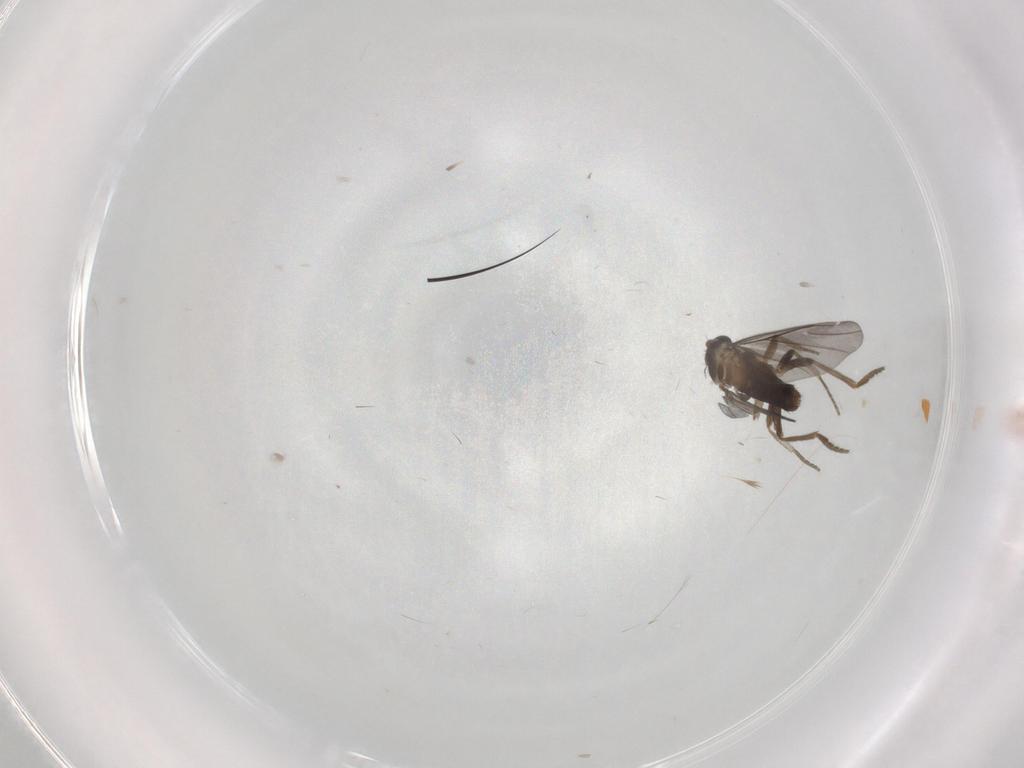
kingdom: Animalia
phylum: Arthropoda
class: Insecta
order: Diptera
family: Phoridae
